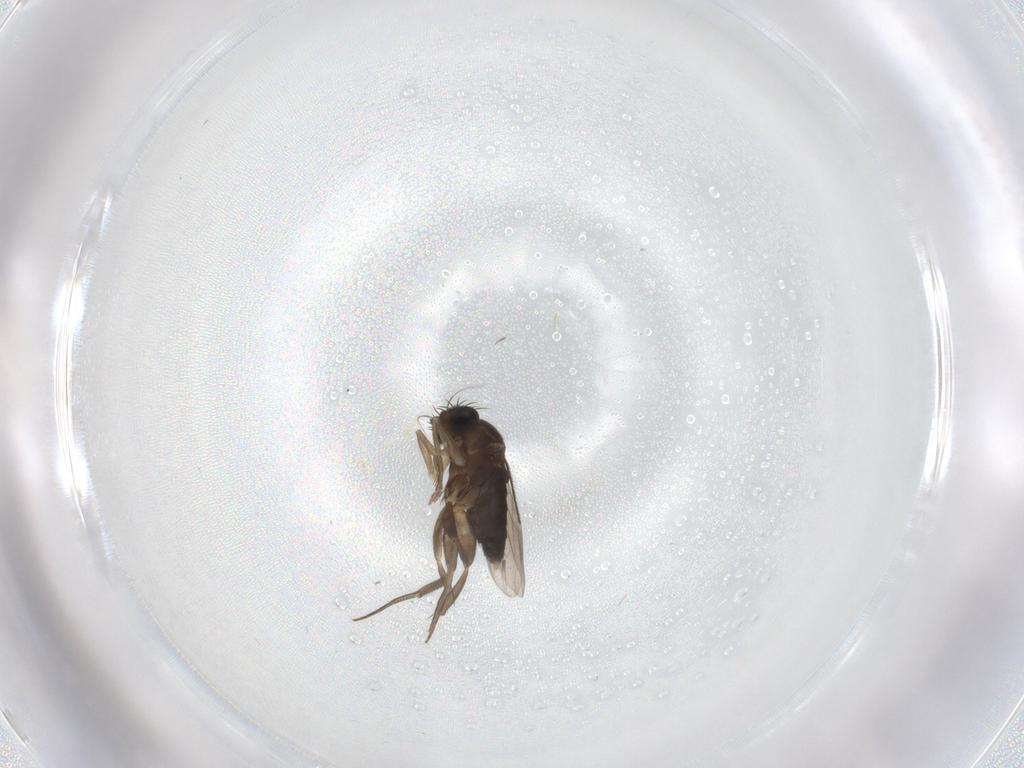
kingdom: Animalia
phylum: Arthropoda
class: Insecta
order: Diptera
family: Phoridae
